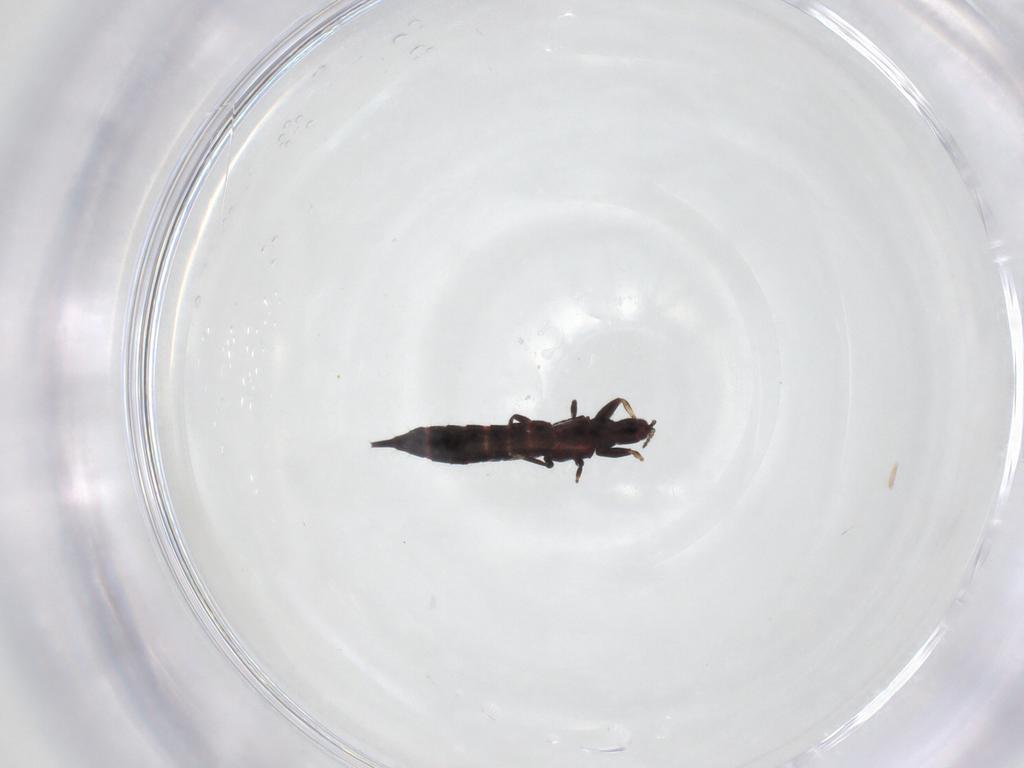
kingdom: Animalia
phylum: Arthropoda
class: Insecta
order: Thysanoptera
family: Phlaeothripidae
